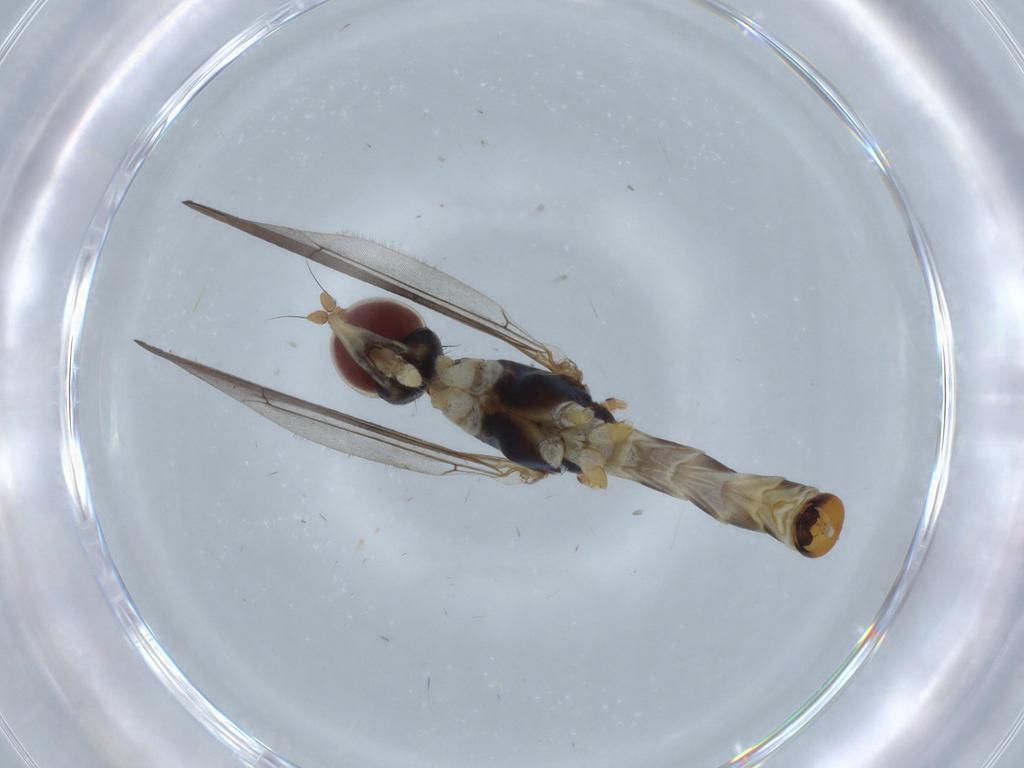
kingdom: Animalia
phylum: Arthropoda
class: Insecta
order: Diptera
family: Micropezidae
